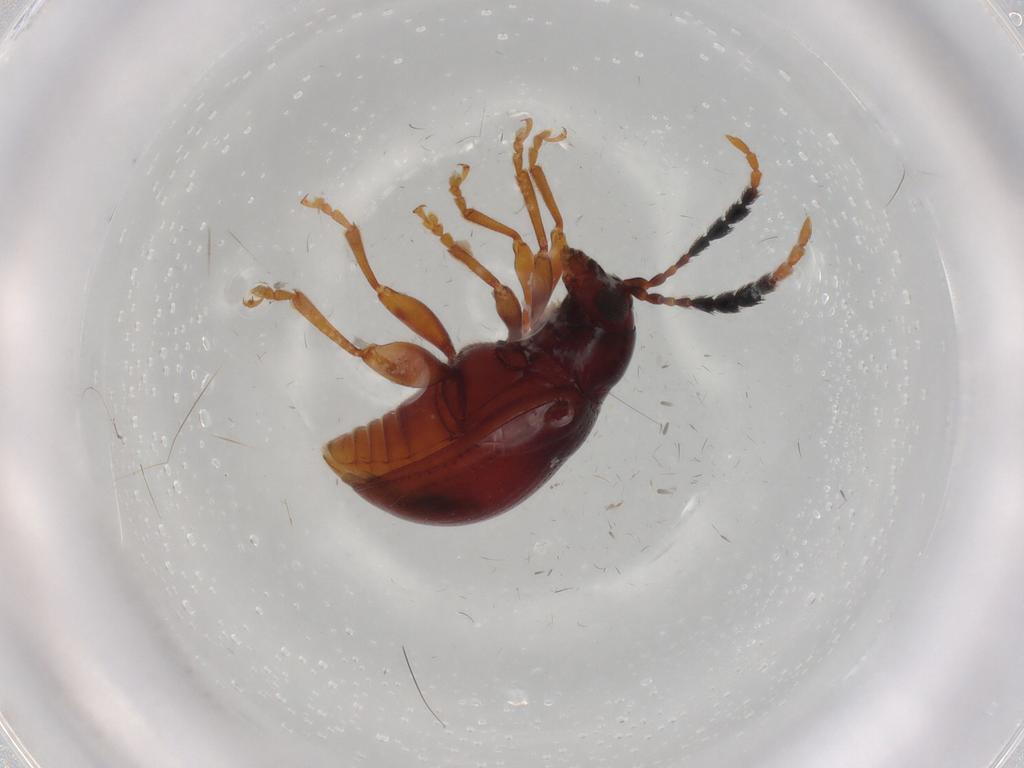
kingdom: Animalia
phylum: Arthropoda
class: Insecta
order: Coleoptera
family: Chrysomelidae
